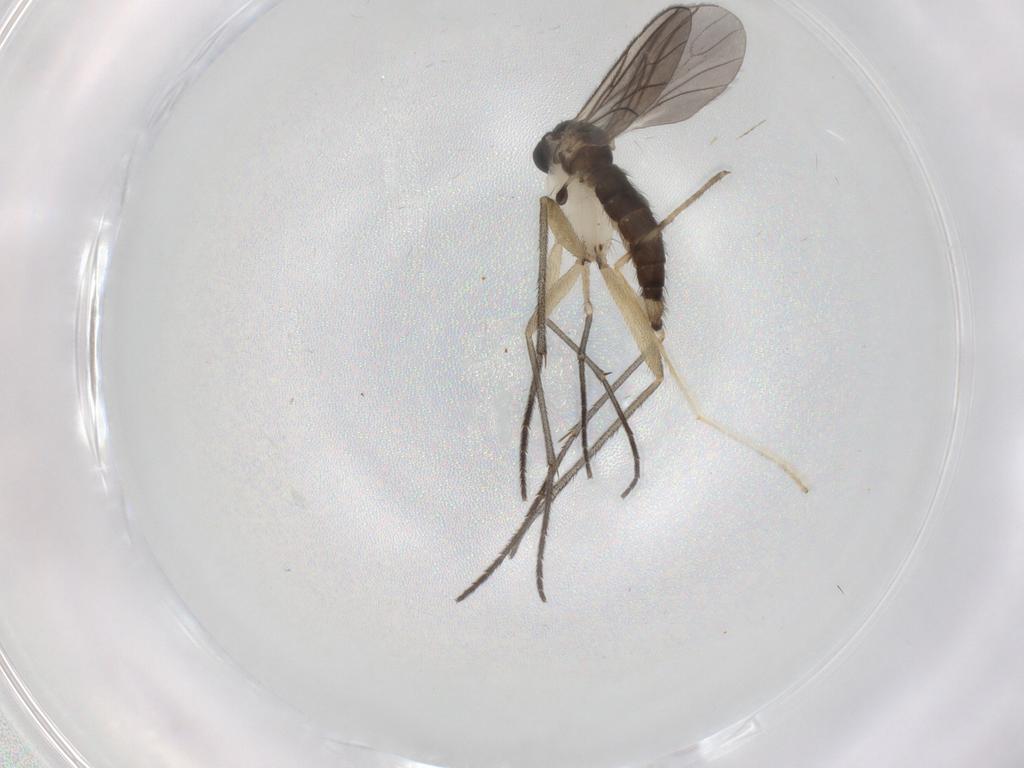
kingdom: Animalia
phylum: Arthropoda
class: Insecta
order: Diptera
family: Sciaridae
